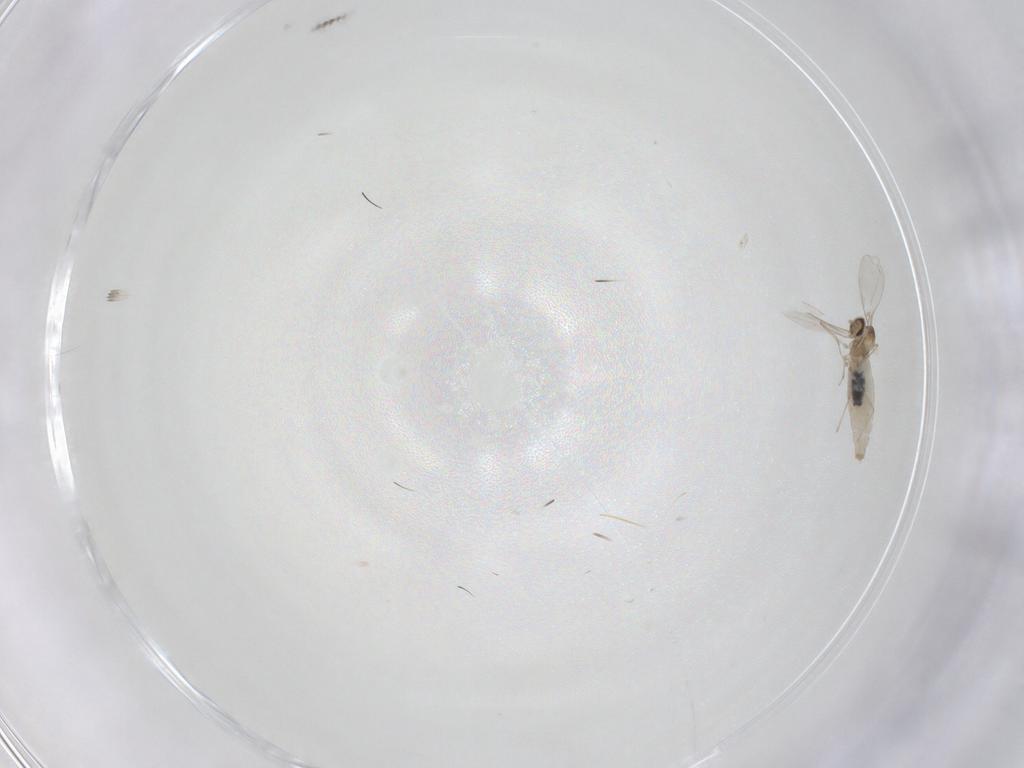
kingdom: Animalia
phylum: Arthropoda
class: Insecta
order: Diptera
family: Cecidomyiidae
